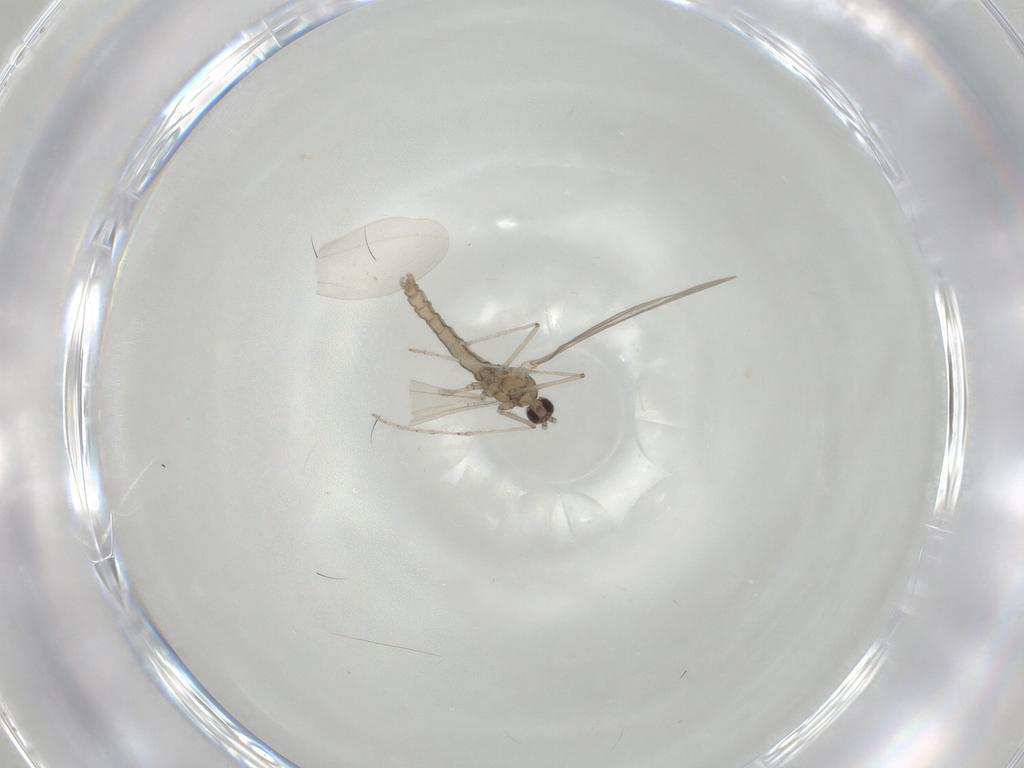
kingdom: Animalia
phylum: Arthropoda
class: Insecta
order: Diptera
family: Cecidomyiidae
